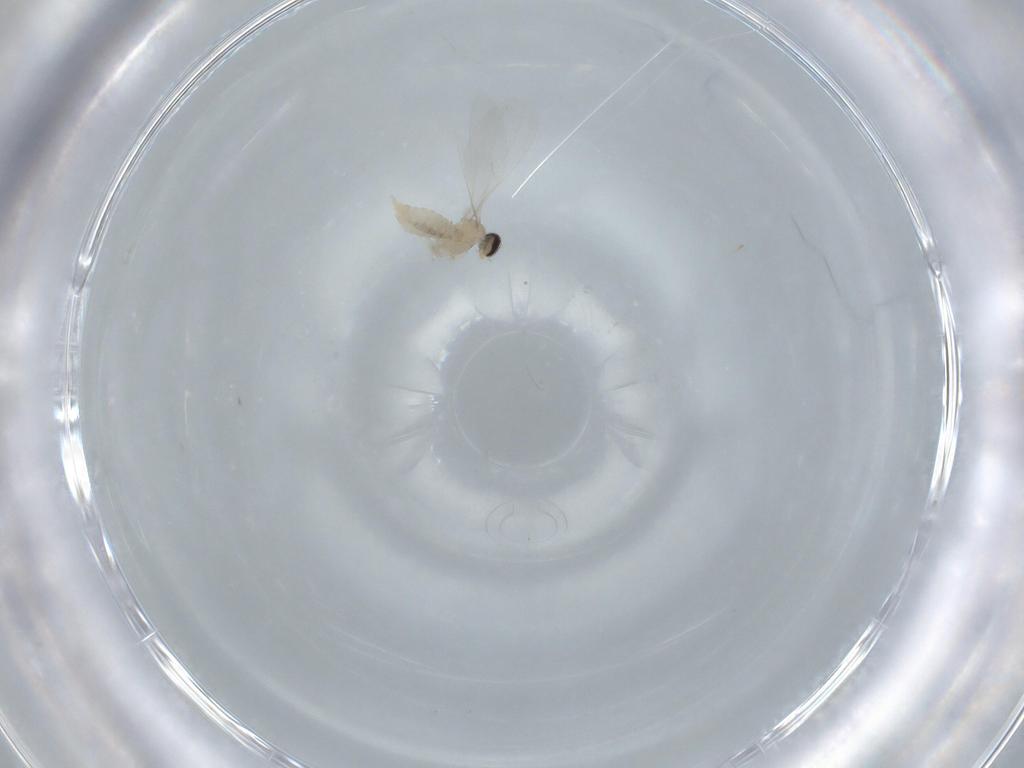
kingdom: Animalia
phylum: Arthropoda
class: Insecta
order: Diptera
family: Cecidomyiidae
